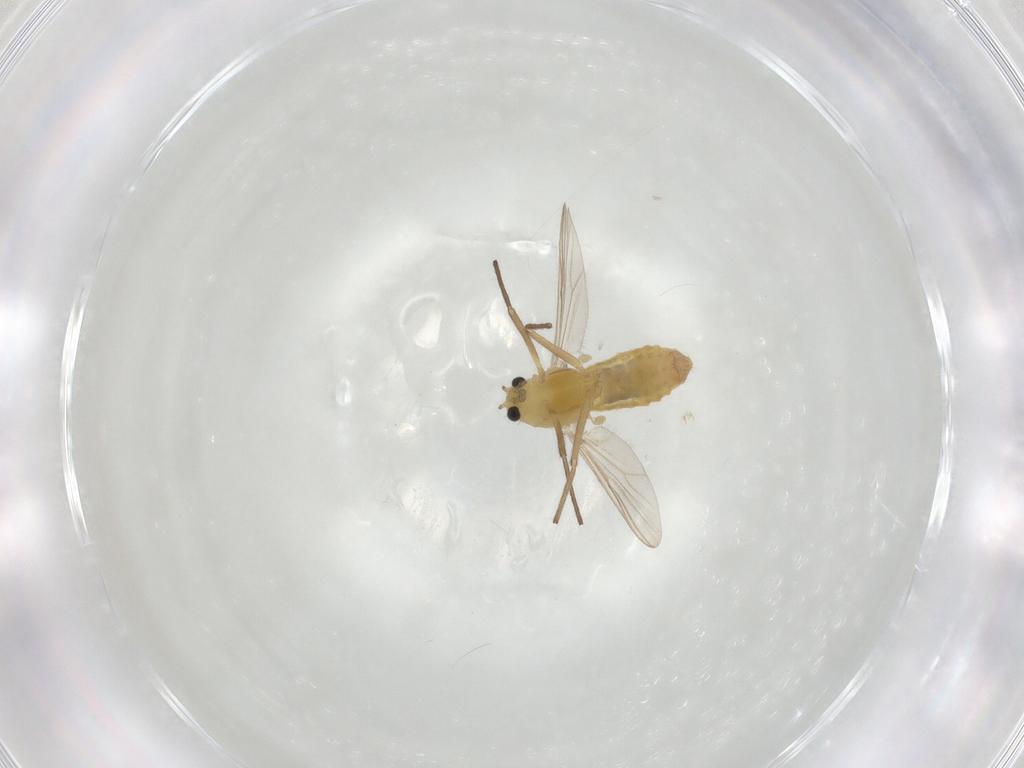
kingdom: Animalia
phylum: Arthropoda
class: Insecta
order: Diptera
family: Chironomidae
